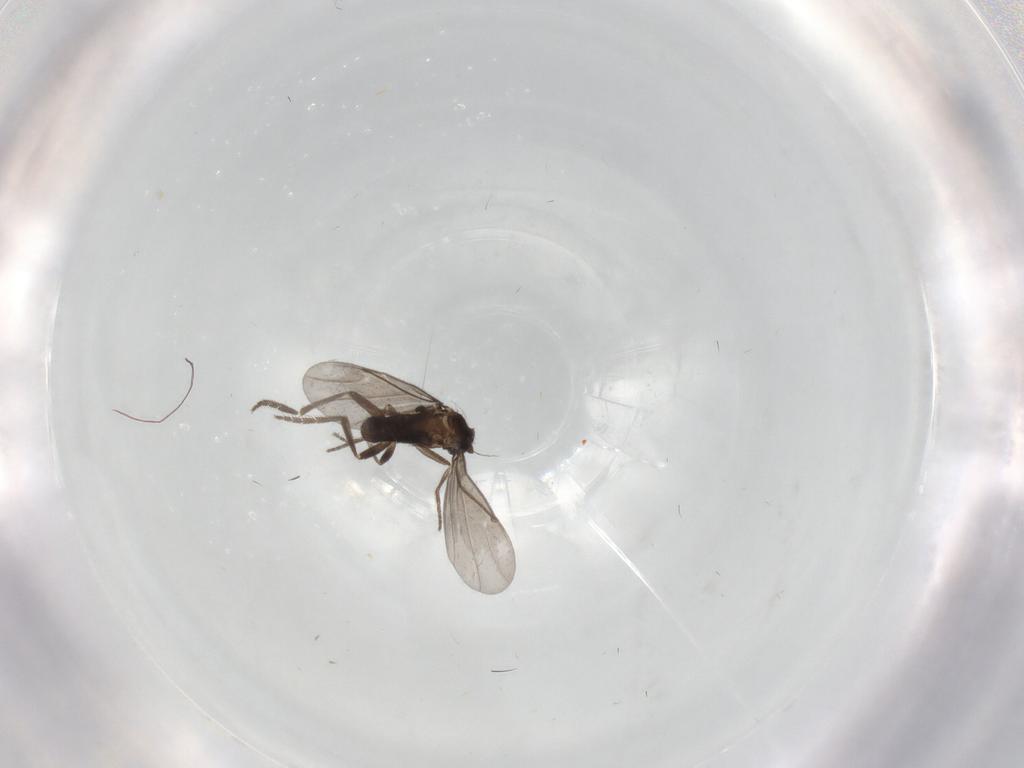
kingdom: Animalia
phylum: Arthropoda
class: Insecta
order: Diptera
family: Phoridae
